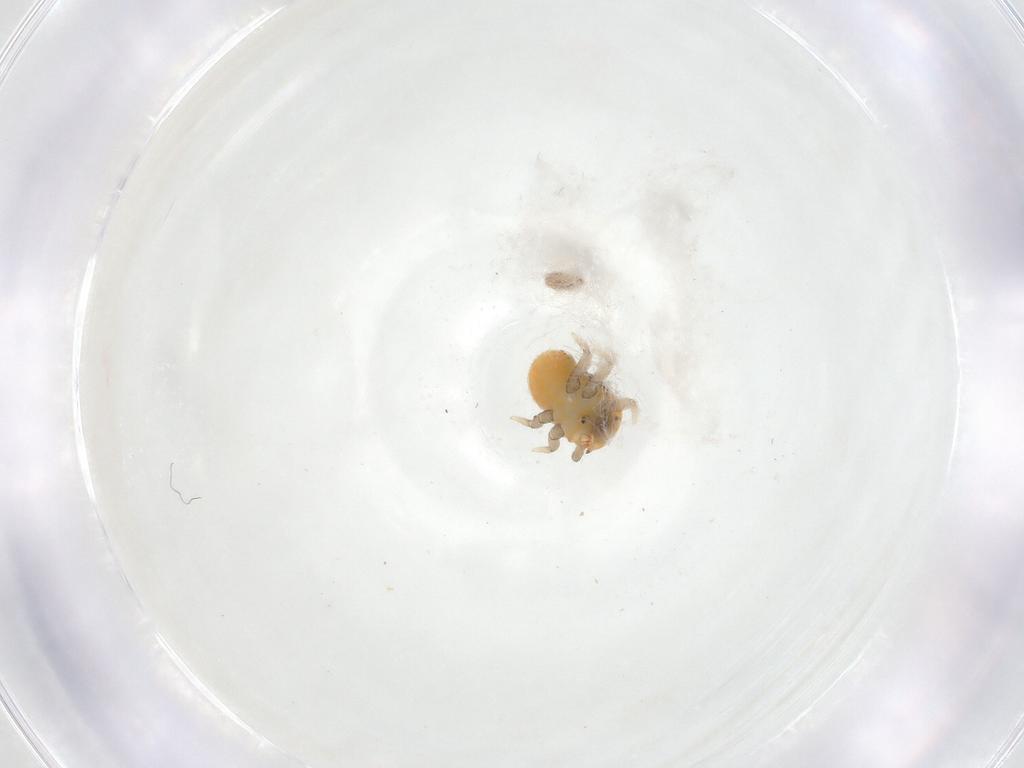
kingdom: Animalia
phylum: Arthropoda
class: Insecta
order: Hemiptera
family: Triozidae
